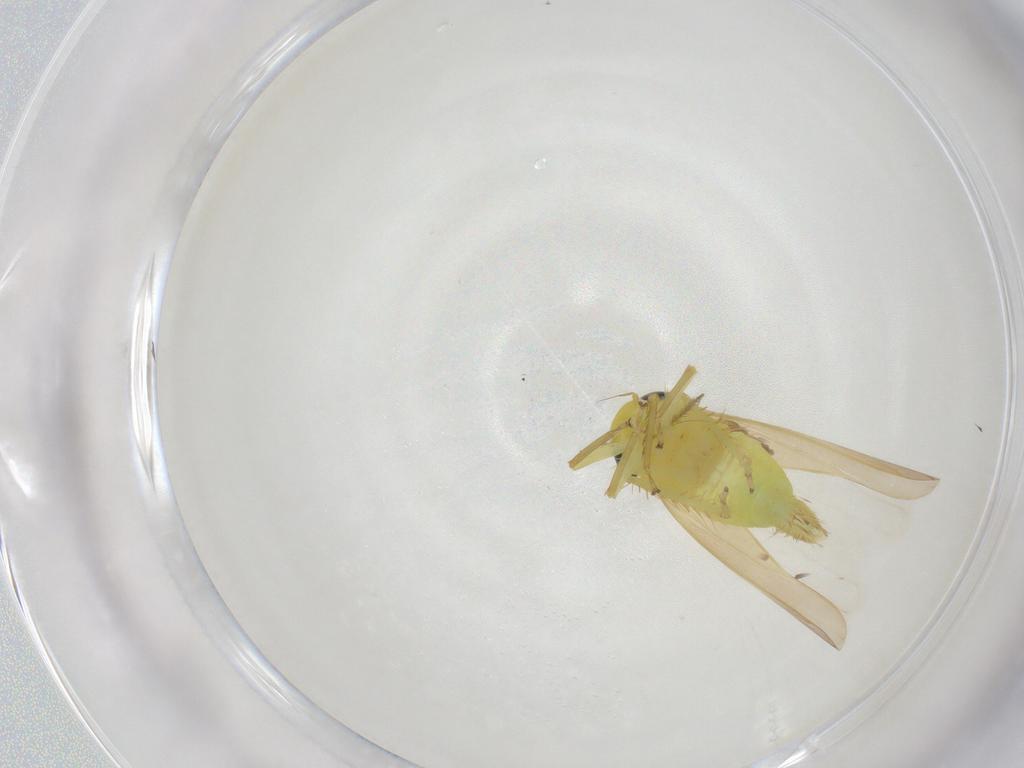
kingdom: Animalia
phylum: Arthropoda
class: Insecta
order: Hemiptera
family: Cicadellidae
